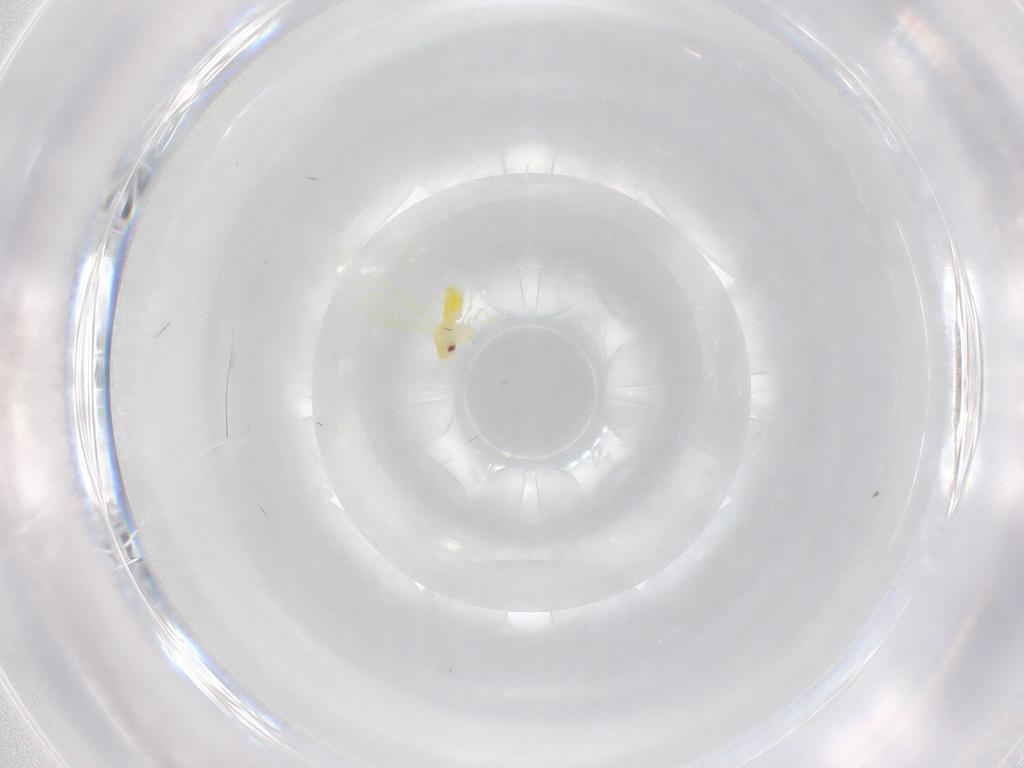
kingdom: Animalia
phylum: Arthropoda
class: Insecta
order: Hemiptera
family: Aleyrodidae
